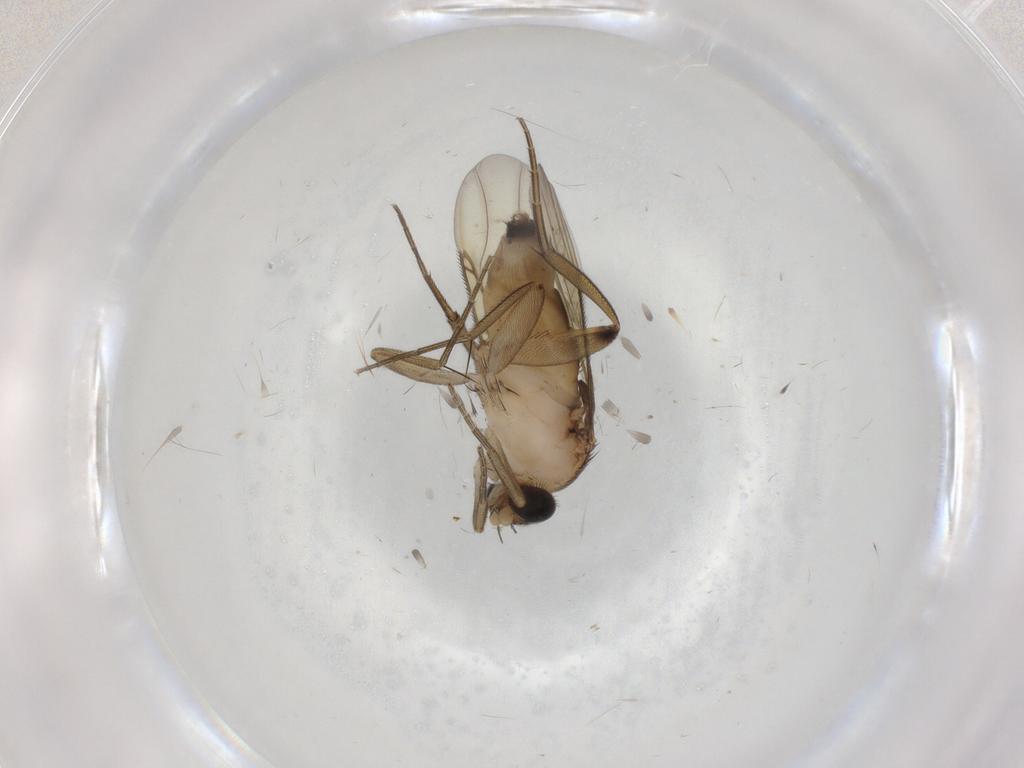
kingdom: Animalia
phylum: Arthropoda
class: Insecta
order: Diptera
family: Phoridae
